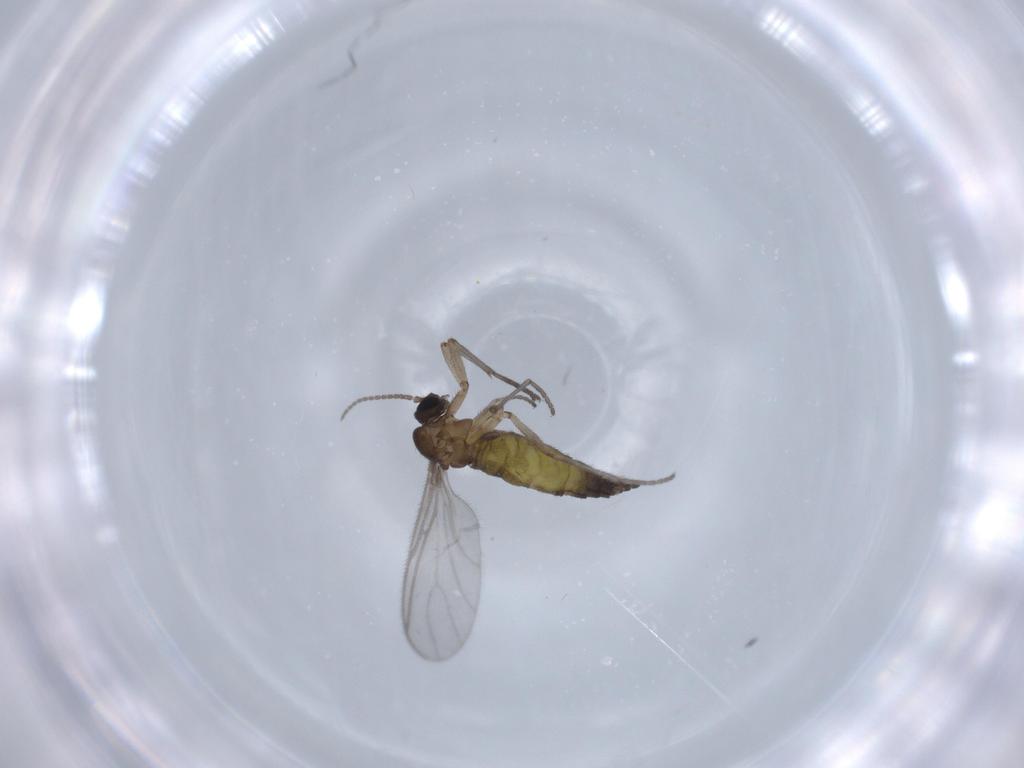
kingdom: Animalia
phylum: Arthropoda
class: Insecta
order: Diptera
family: Sciaridae
